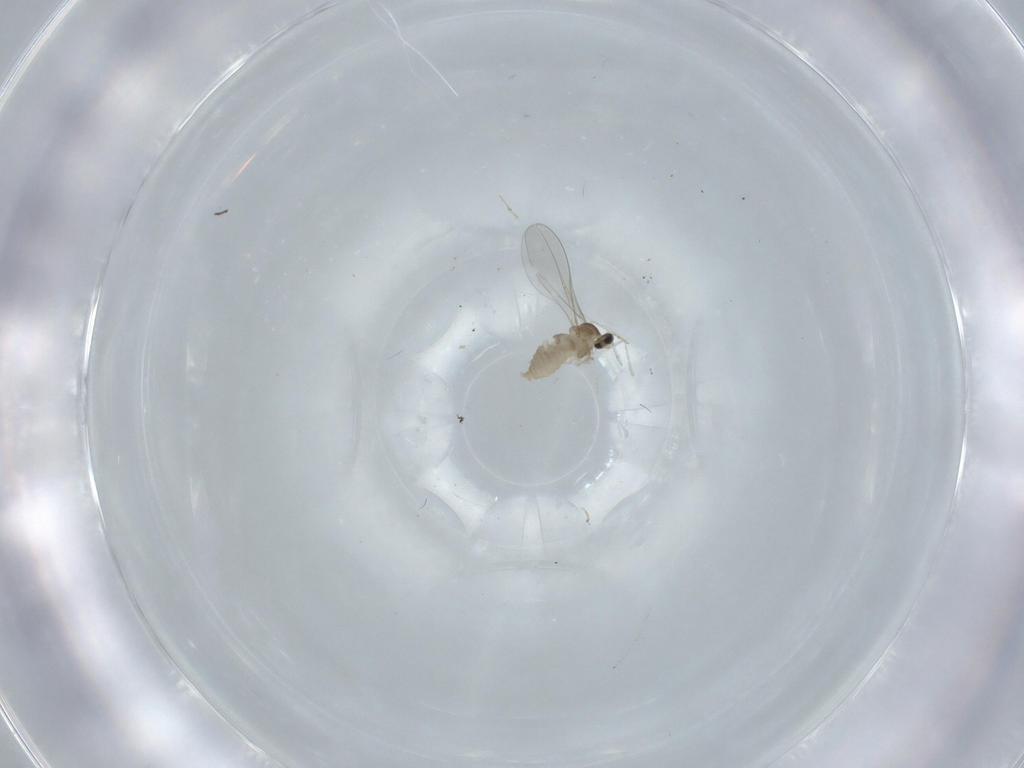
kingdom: Animalia
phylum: Arthropoda
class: Insecta
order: Diptera
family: Cecidomyiidae
